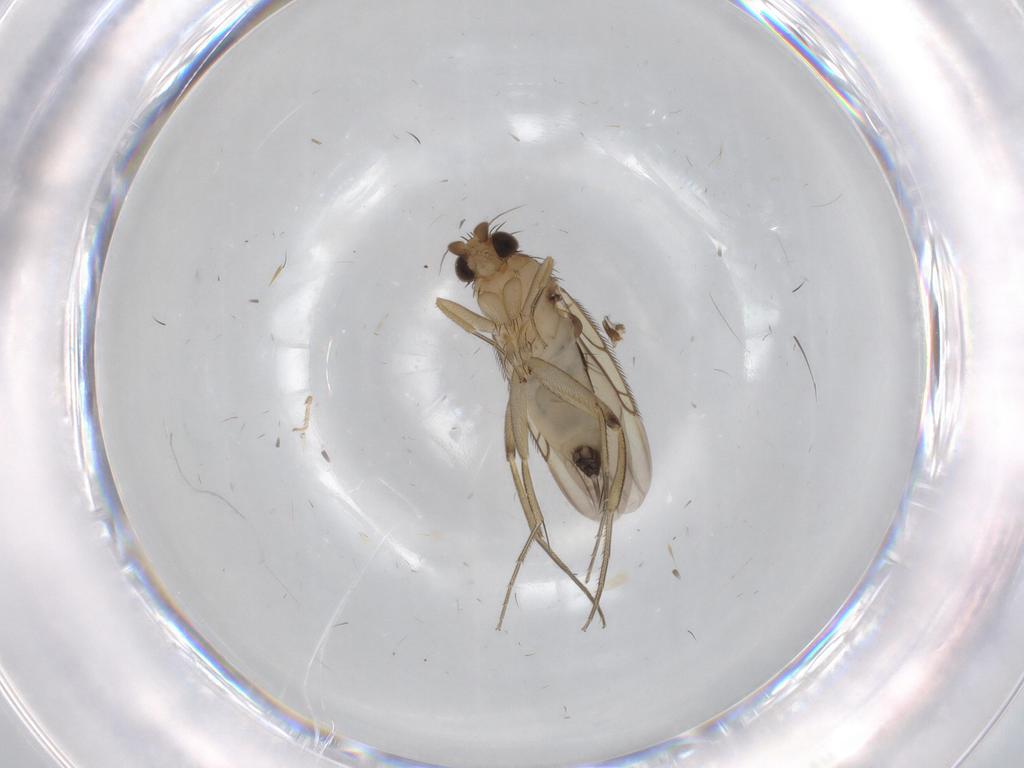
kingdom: Animalia
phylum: Arthropoda
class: Insecta
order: Diptera
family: Phoridae
